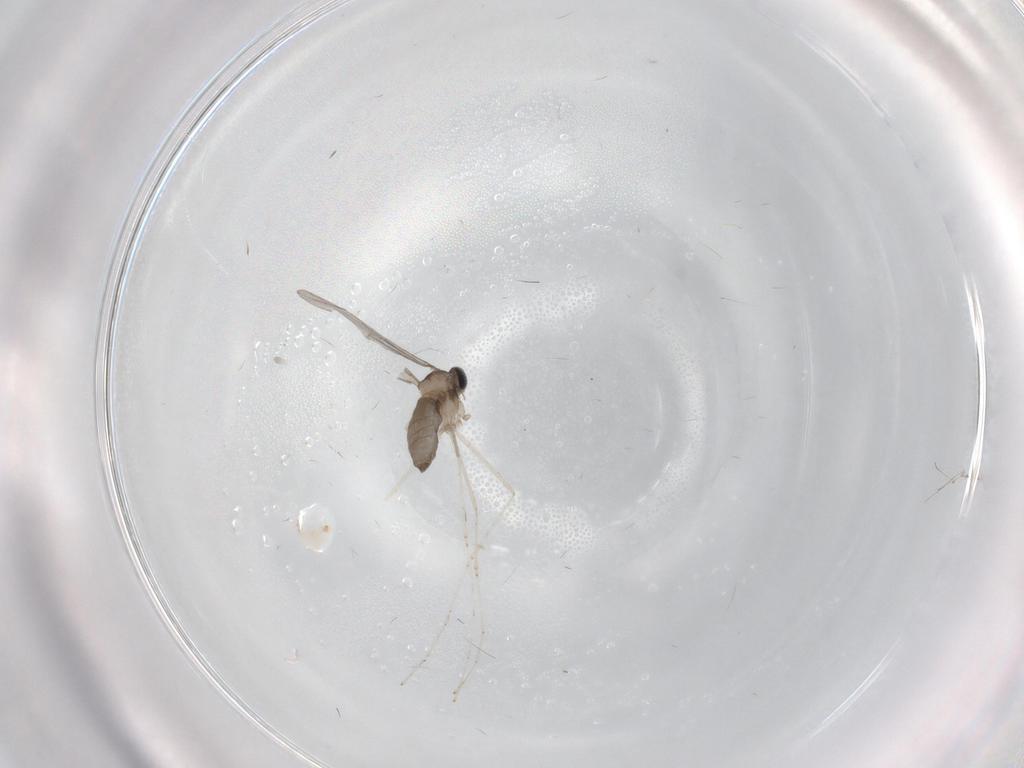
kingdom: Animalia
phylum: Arthropoda
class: Insecta
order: Diptera
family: Cecidomyiidae
